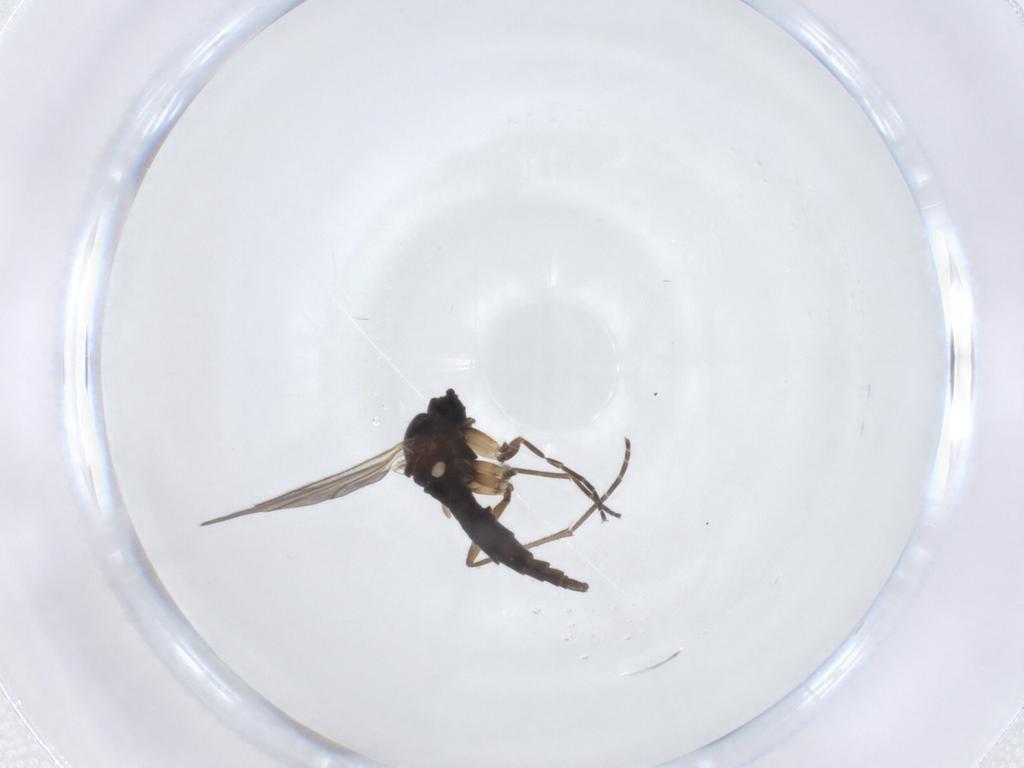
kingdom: Animalia
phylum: Arthropoda
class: Insecta
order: Diptera
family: Sciaridae
